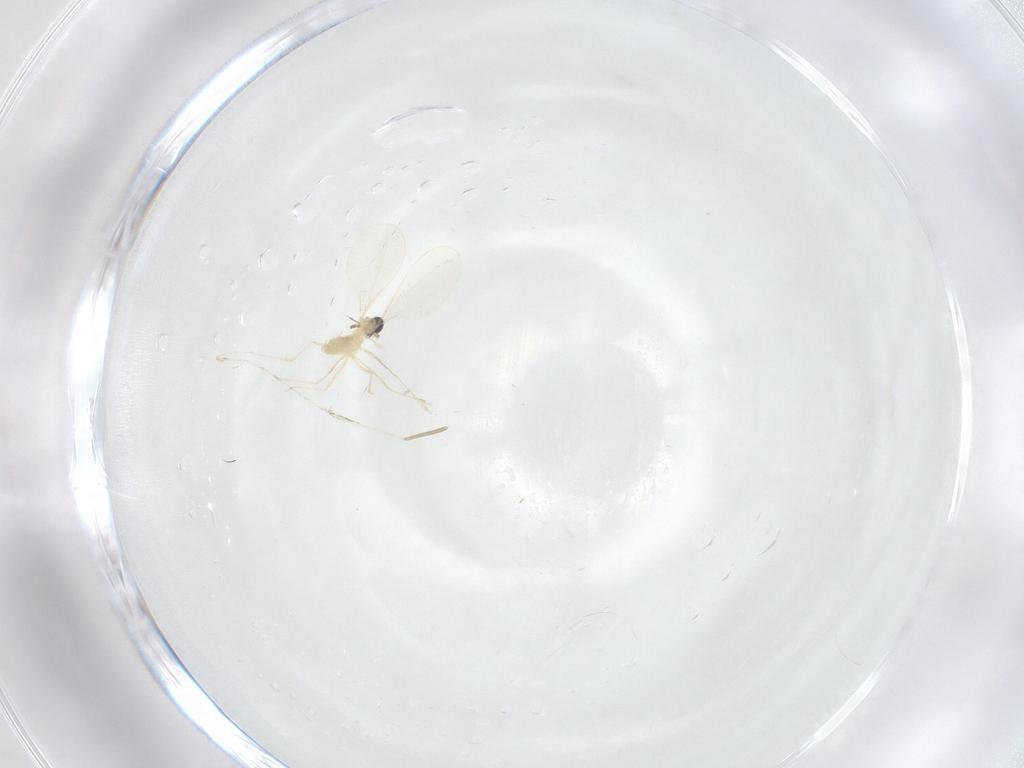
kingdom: Animalia
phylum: Arthropoda
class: Insecta
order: Diptera
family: Cecidomyiidae
